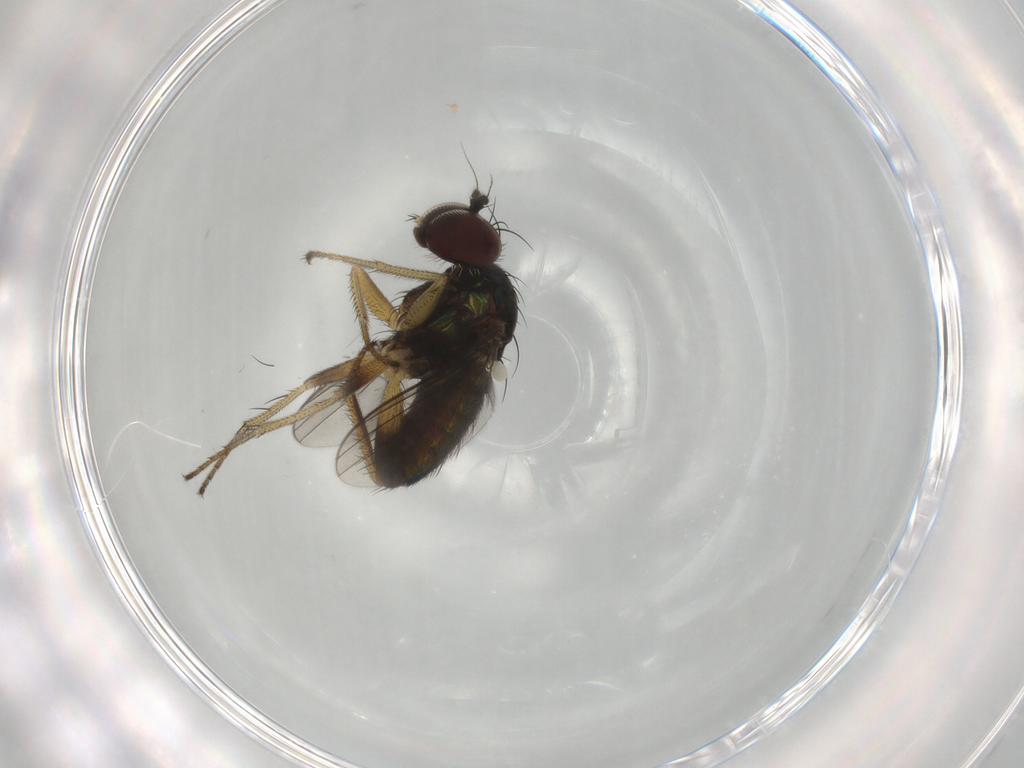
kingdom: Animalia
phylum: Arthropoda
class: Insecta
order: Diptera
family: Dolichopodidae
